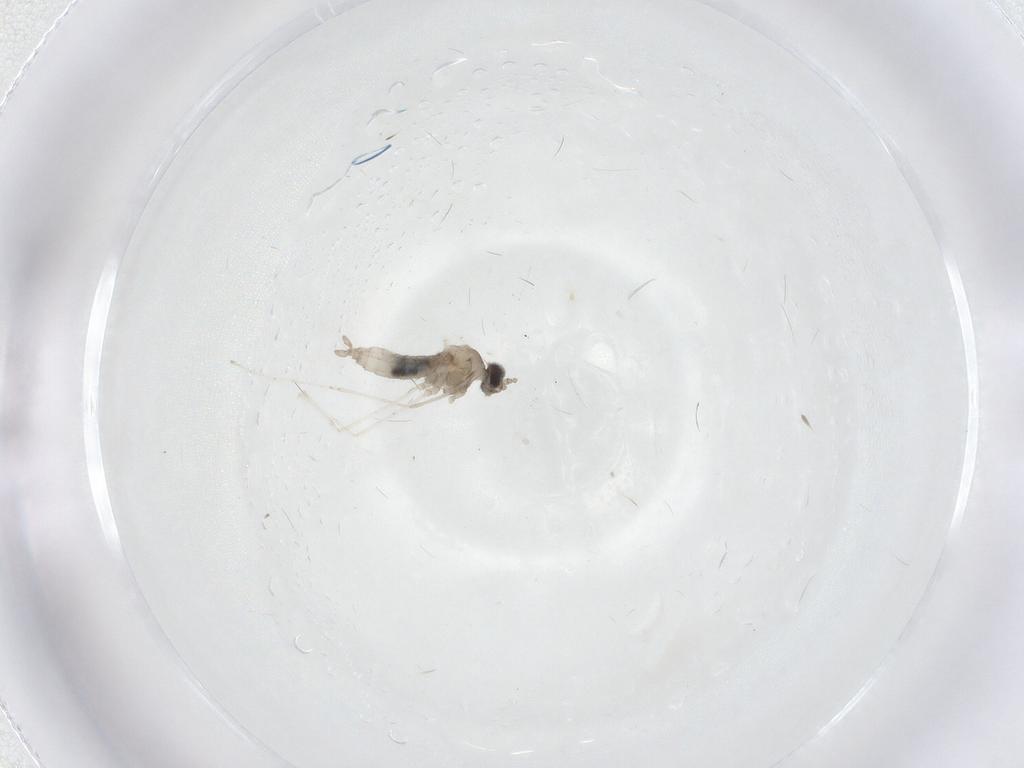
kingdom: Animalia
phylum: Arthropoda
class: Insecta
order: Diptera
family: Cecidomyiidae
